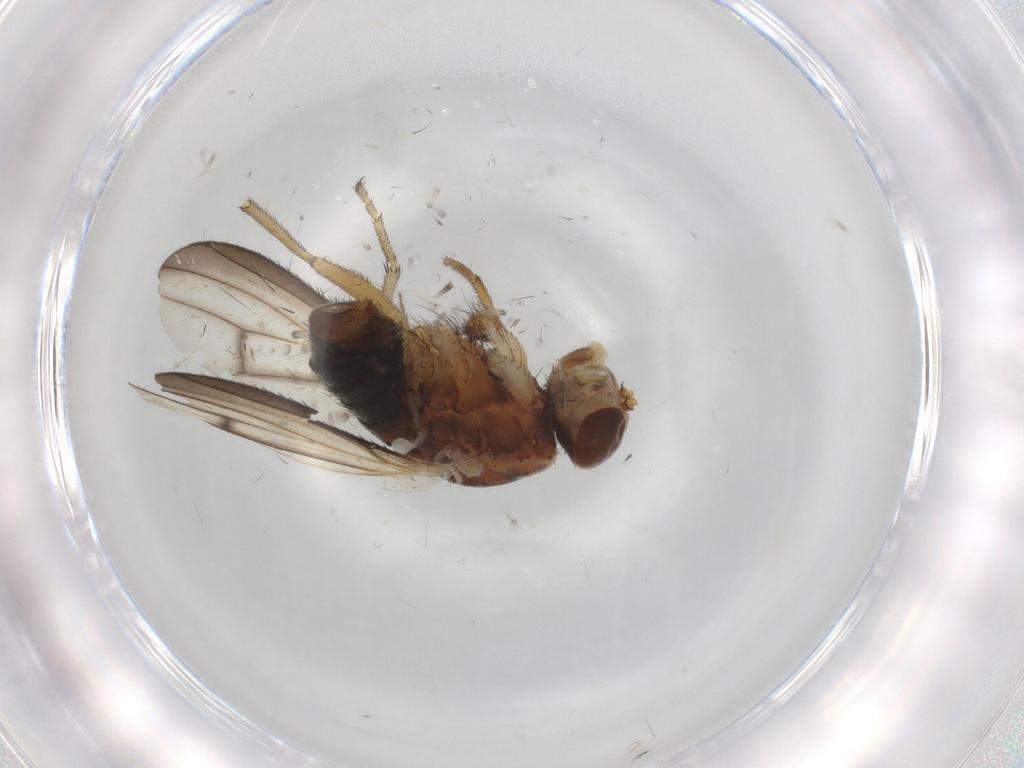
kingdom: Animalia
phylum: Arthropoda
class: Insecta
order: Diptera
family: Heleomyzidae
